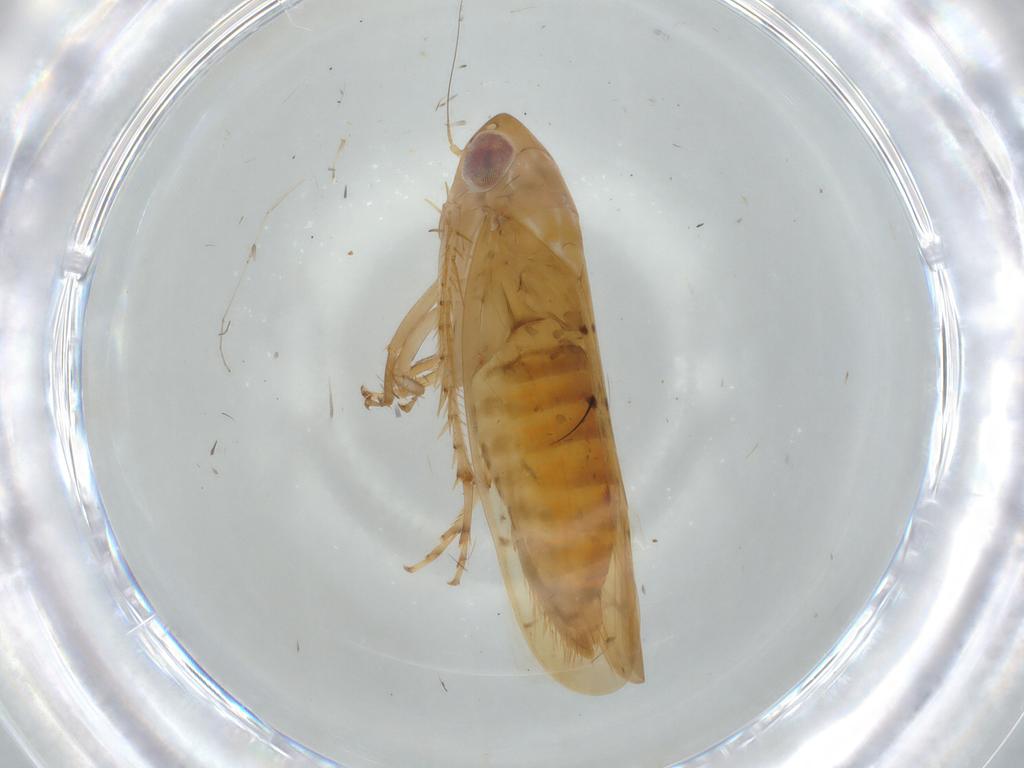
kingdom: Animalia
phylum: Arthropoda
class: Insecta
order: Hemiptera
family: Cicadellidae
